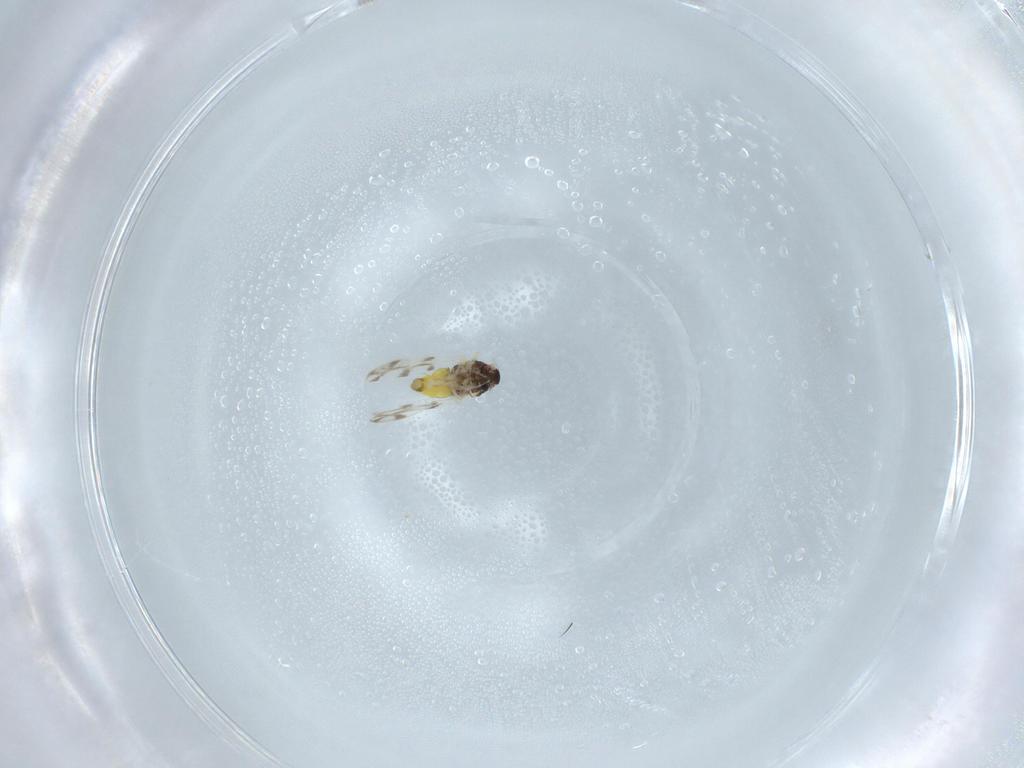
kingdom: Animalia
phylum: Arthropoda
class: Insecta
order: Hemiptera
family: Aleyrodidae
